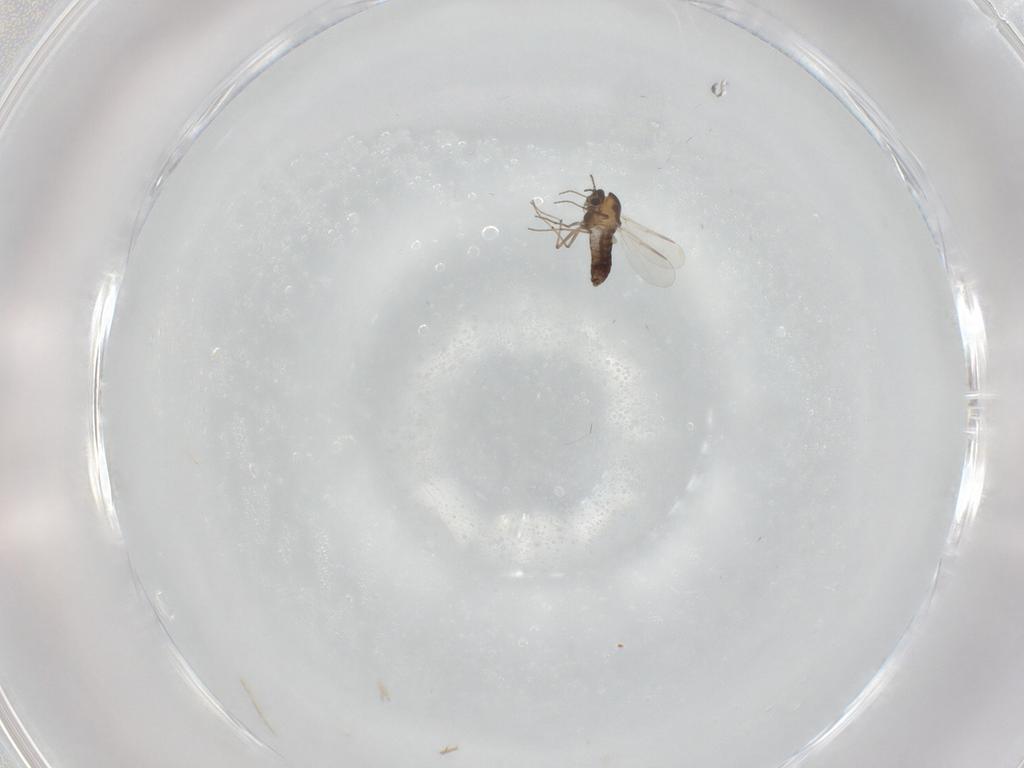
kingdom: Animalia
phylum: Arthropoda
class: Insecta
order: Diptera
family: Chironomidae
